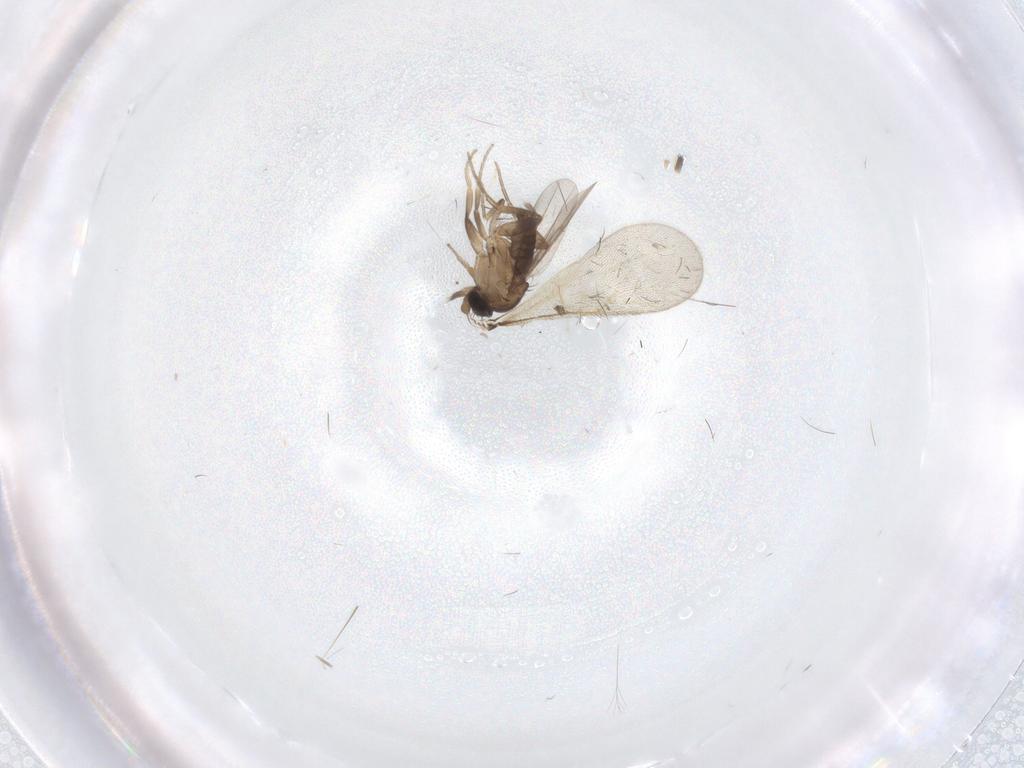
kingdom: Animalia
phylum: Arthropoda
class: Insecta
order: Diptera
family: Phoridae
